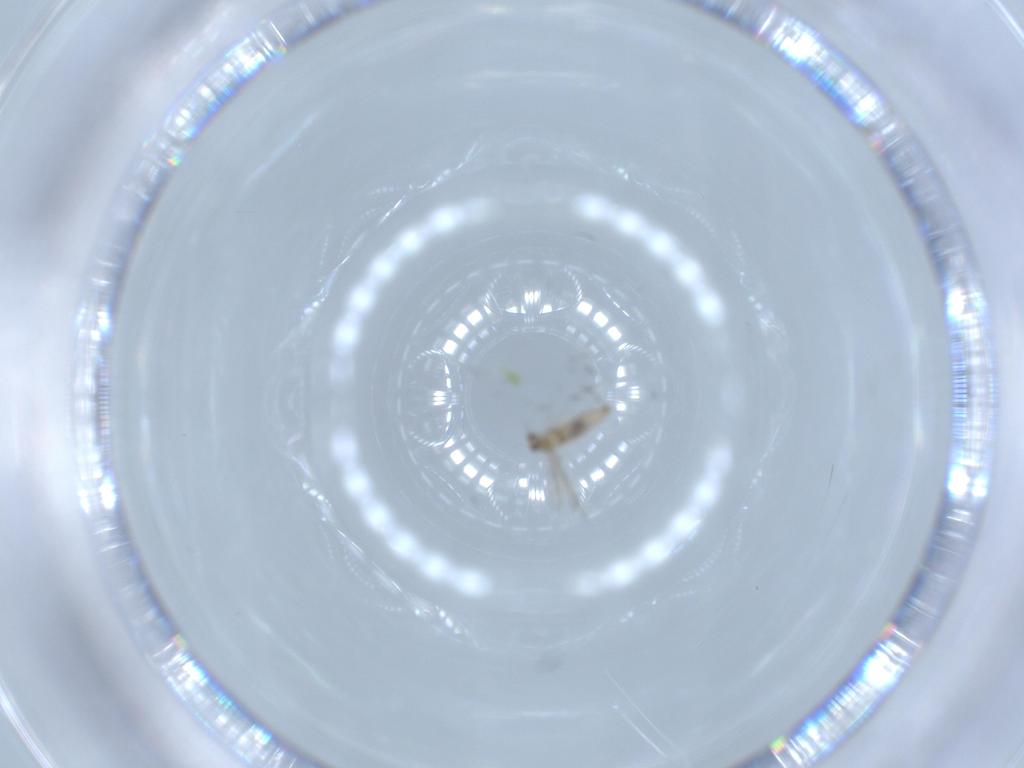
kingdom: Animalia
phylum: Arthropoda
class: Insecta
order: Diptera
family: Cecidomyiidae
